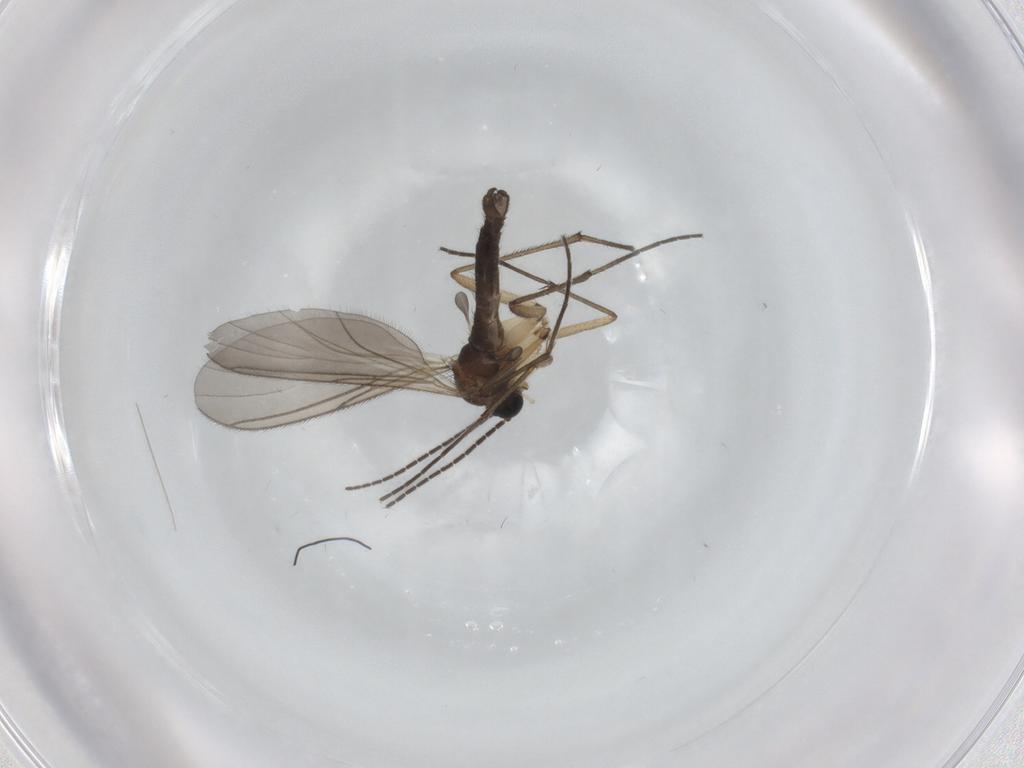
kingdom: Animalia
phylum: Arthropoda
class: Insecta
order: Diptera
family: Sciaridae
